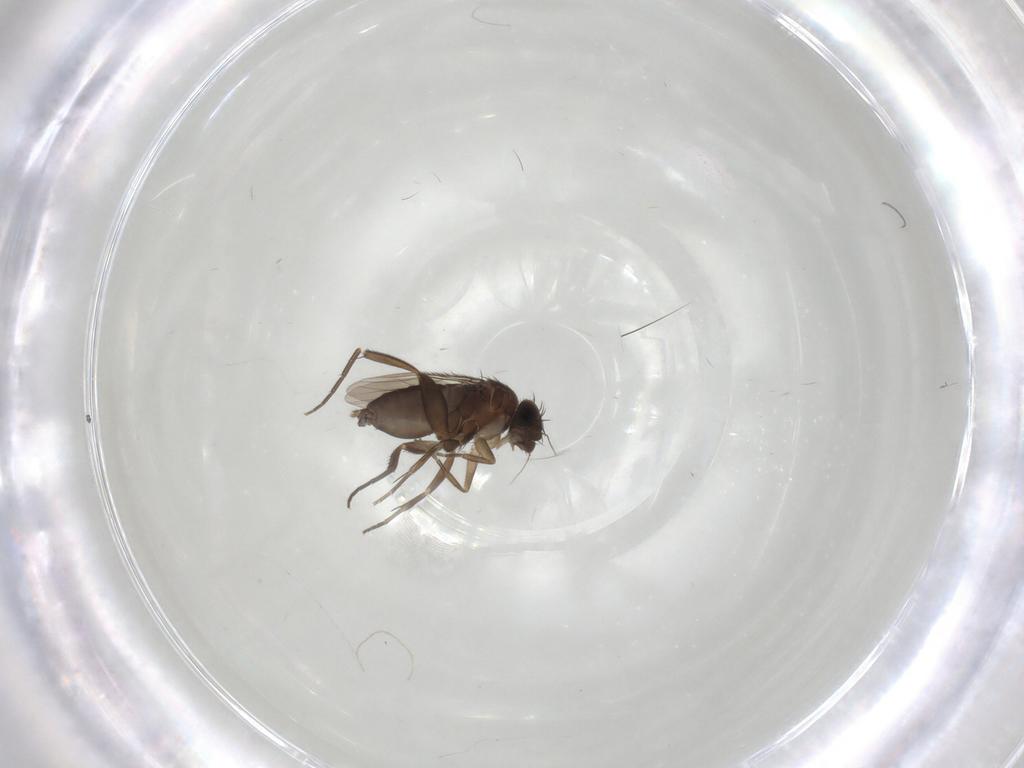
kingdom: Animalia
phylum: Arthropoda
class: Insecta
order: Diptera
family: Phoridae
